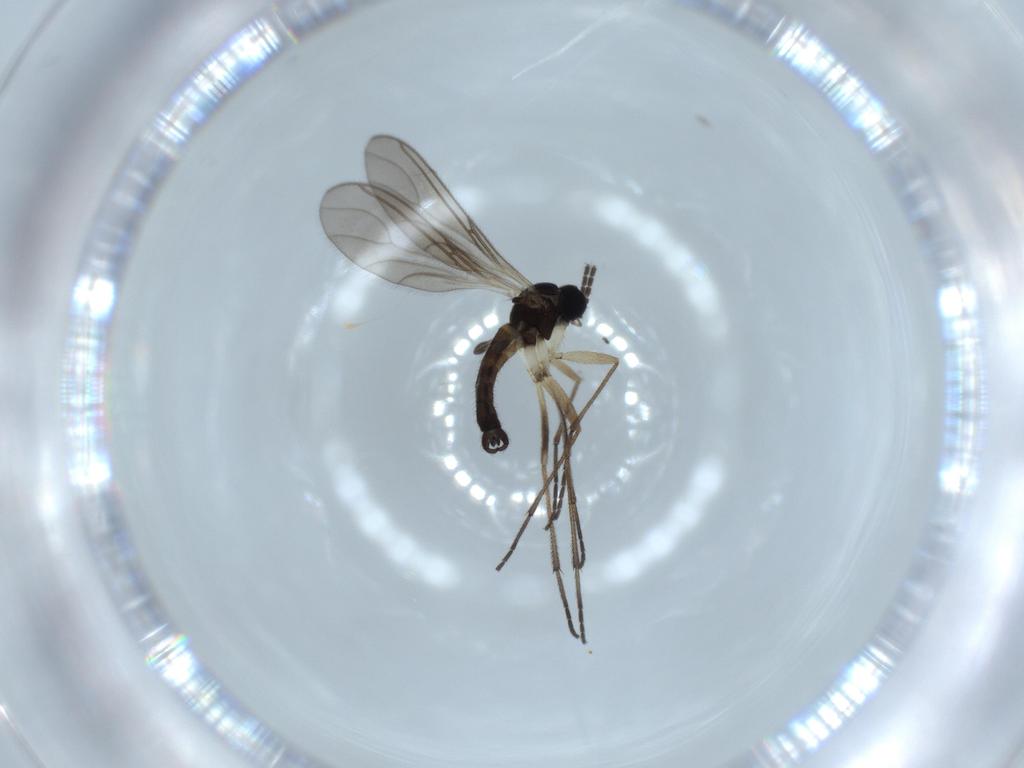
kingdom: Animalia
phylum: Arthropoda
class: Insecta
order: Diptera
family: Sciaridae
